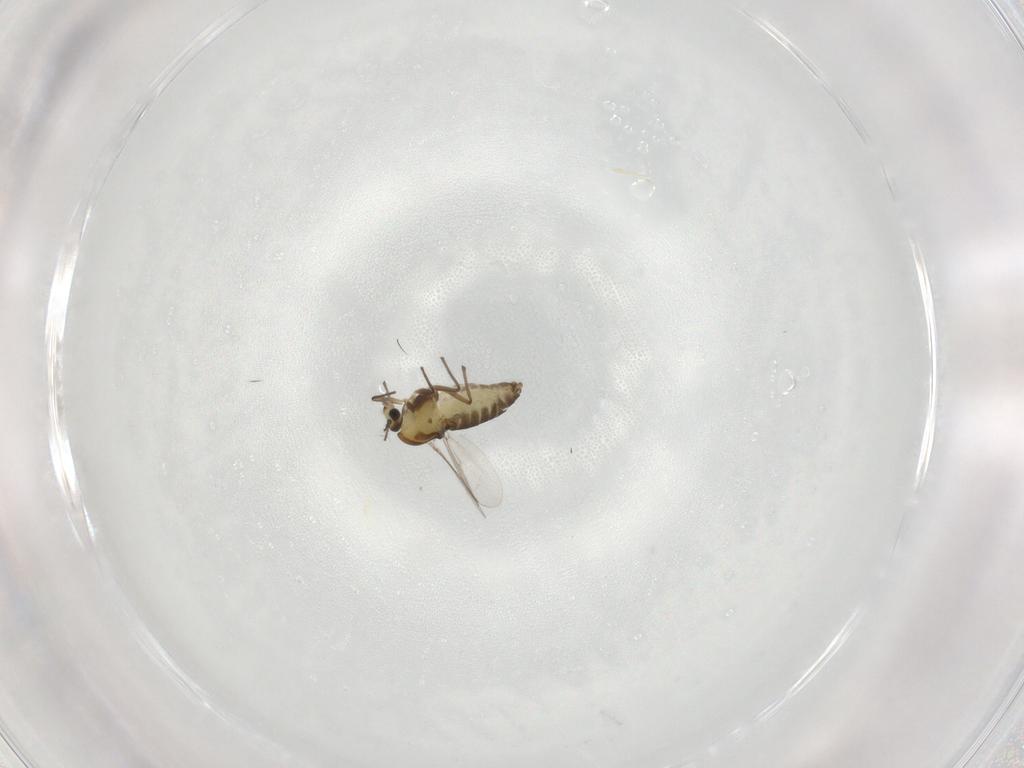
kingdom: Animalia
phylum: Arthropoda
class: Insecta
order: Diptera
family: Chironomidae
